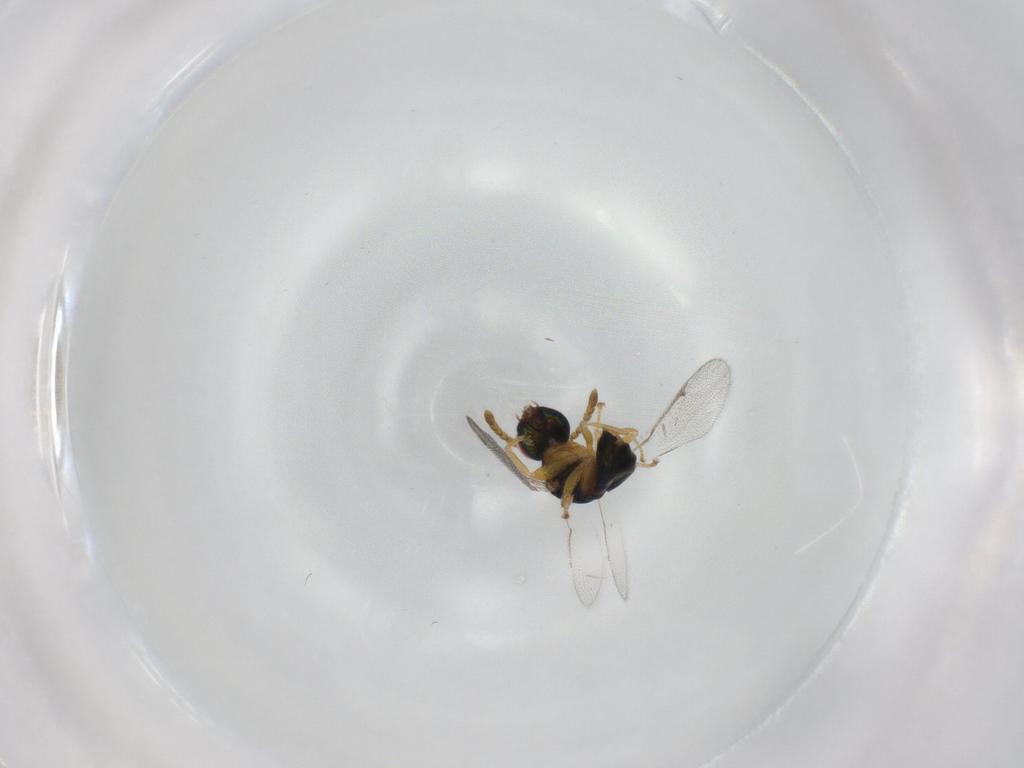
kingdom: Animalia
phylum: Arthropoda
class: Insecta
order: Hymenoptera
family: Torymidae
